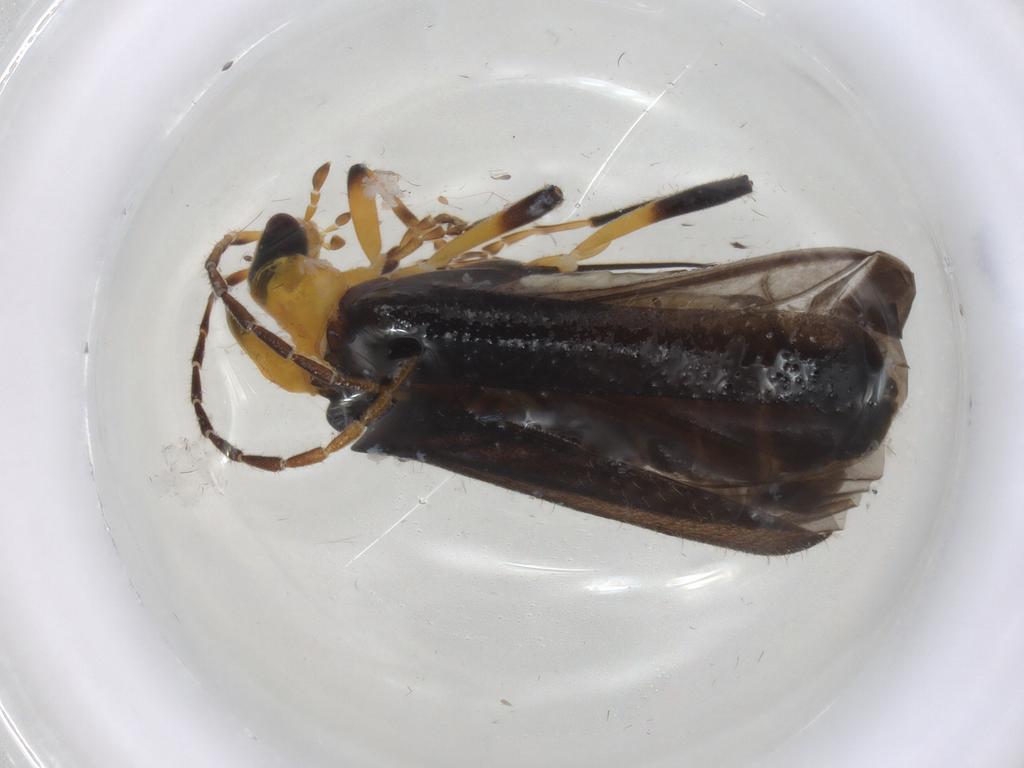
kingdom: Animalia
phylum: Arthropoda
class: Insecta
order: Coleoptera
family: Cantharidae
